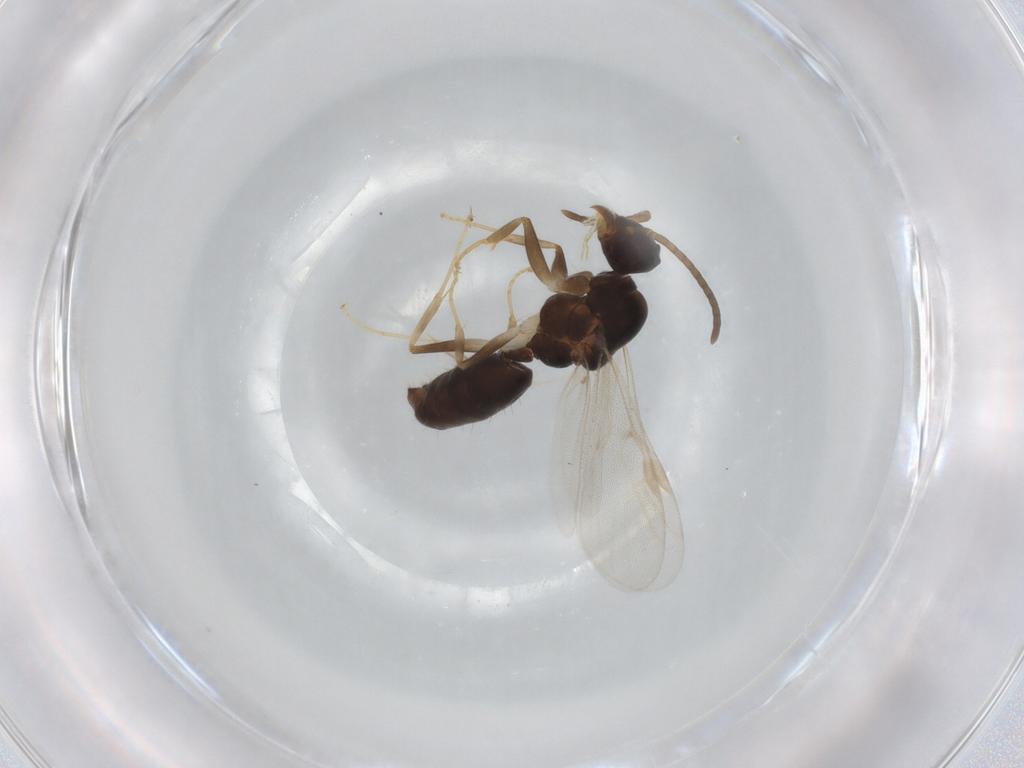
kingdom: Animalia
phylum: Arthropoda
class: Insecta
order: Hymenoptera
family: Formicidae
